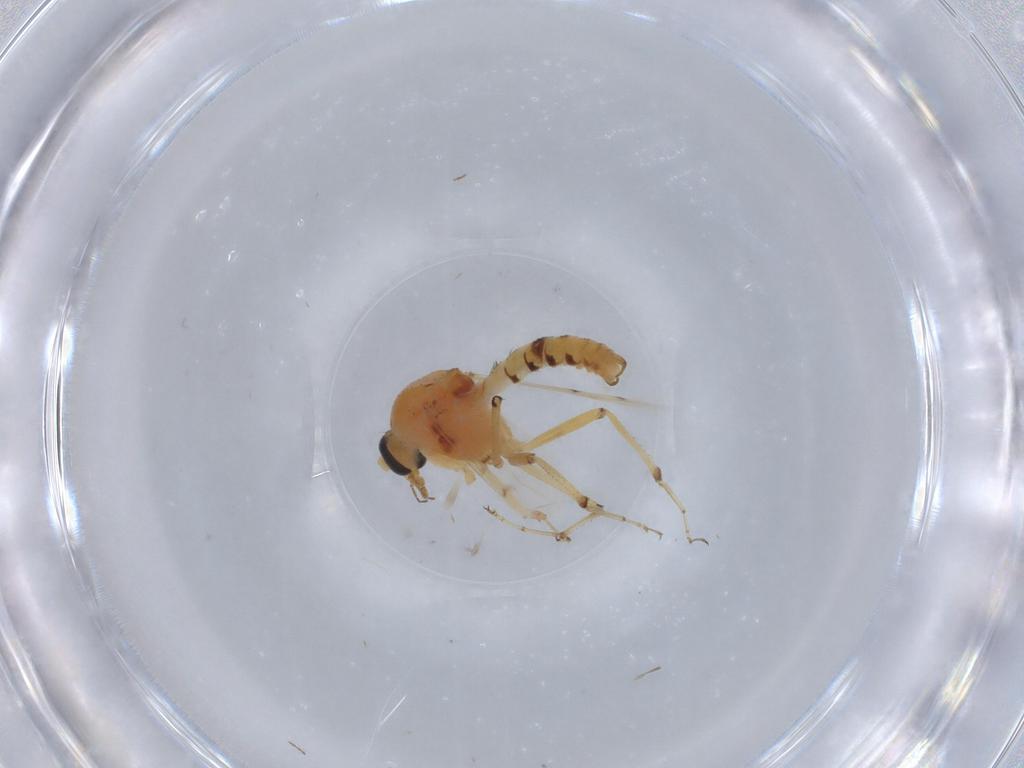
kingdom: Animalia
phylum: Arthropoda
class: Insecta
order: Diptera
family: Ceratopogonidae
